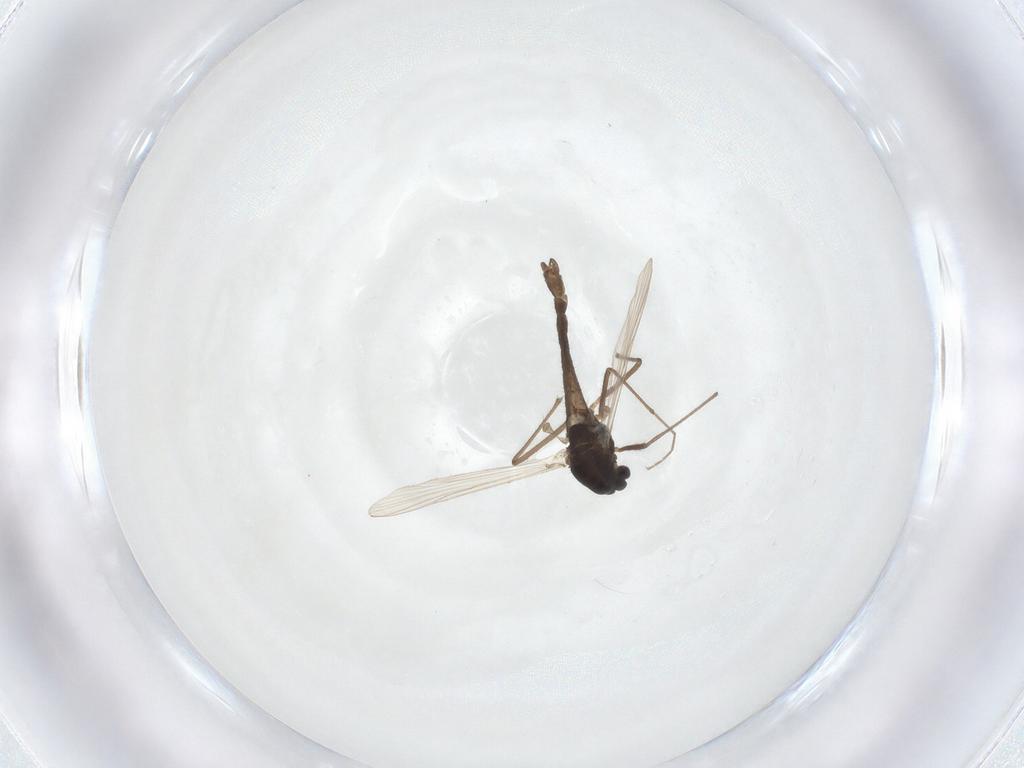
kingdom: Animalia
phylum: Arthropoda
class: Insecta
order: Diptera
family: Chironomidae
